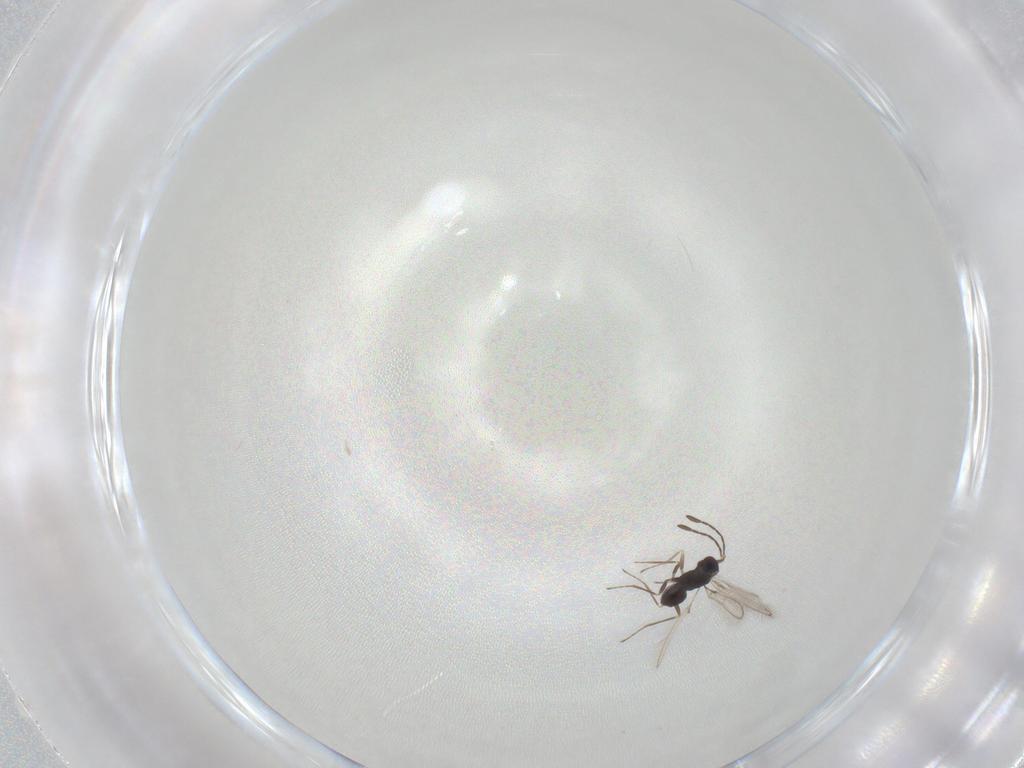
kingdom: Animalia
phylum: Arthropoda
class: Insecta
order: Hymenoptera
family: Mymaridae
